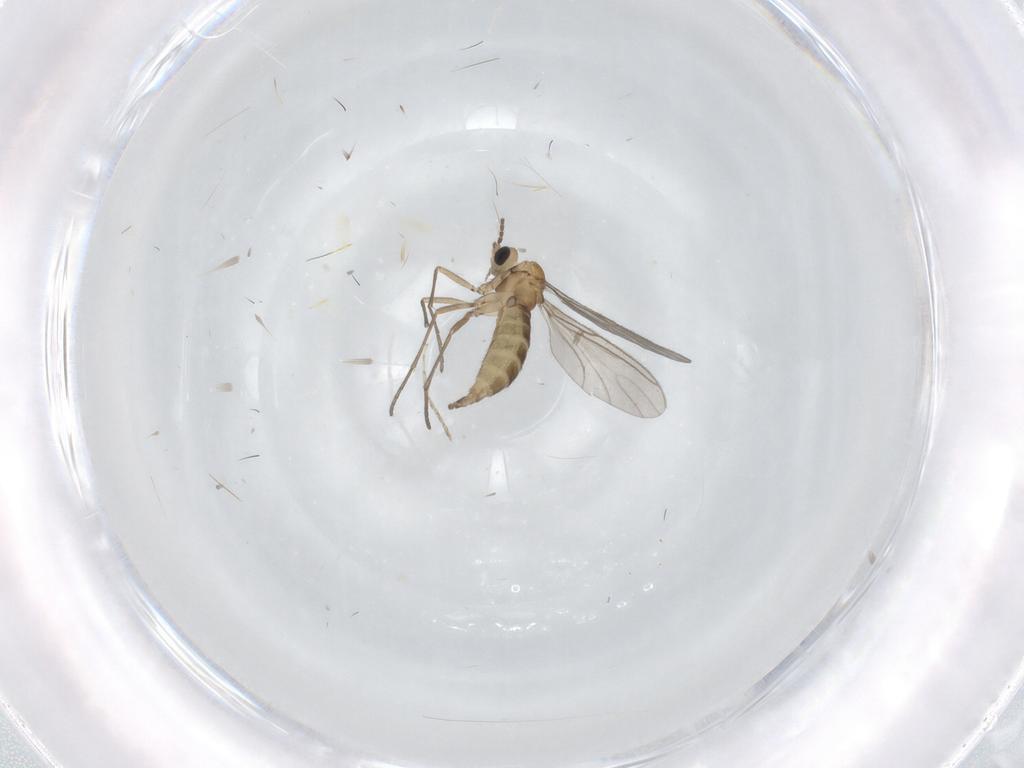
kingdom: Animalia
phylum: Arthropoda
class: Insecta
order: Diptera
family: Sciaridae
